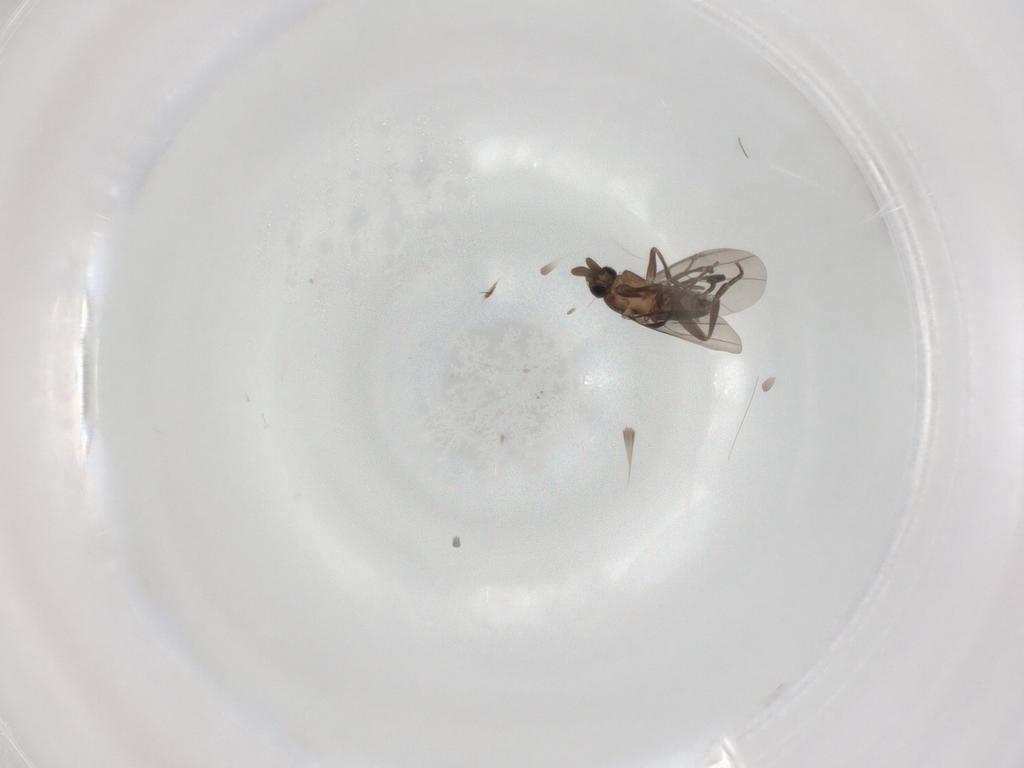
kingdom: Animalia
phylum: Arthropoda
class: Insecta
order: Diptera
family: Chironomidae
